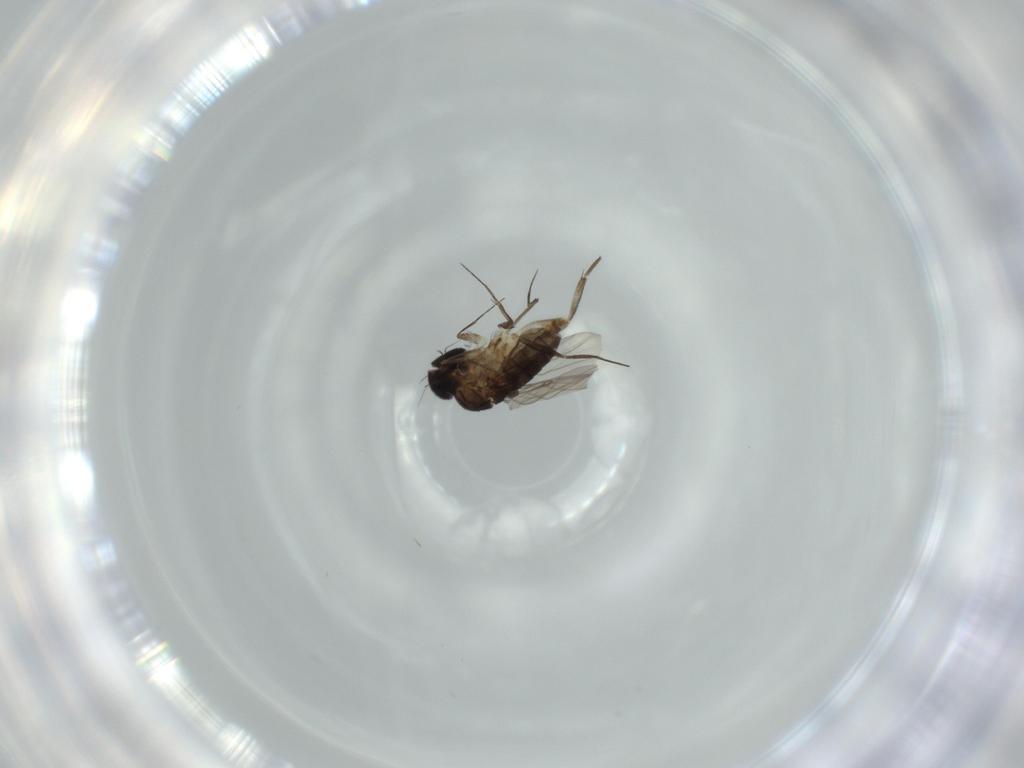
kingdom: Animalia
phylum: Arthropoda
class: Insecta
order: Diptera
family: Phoridae
